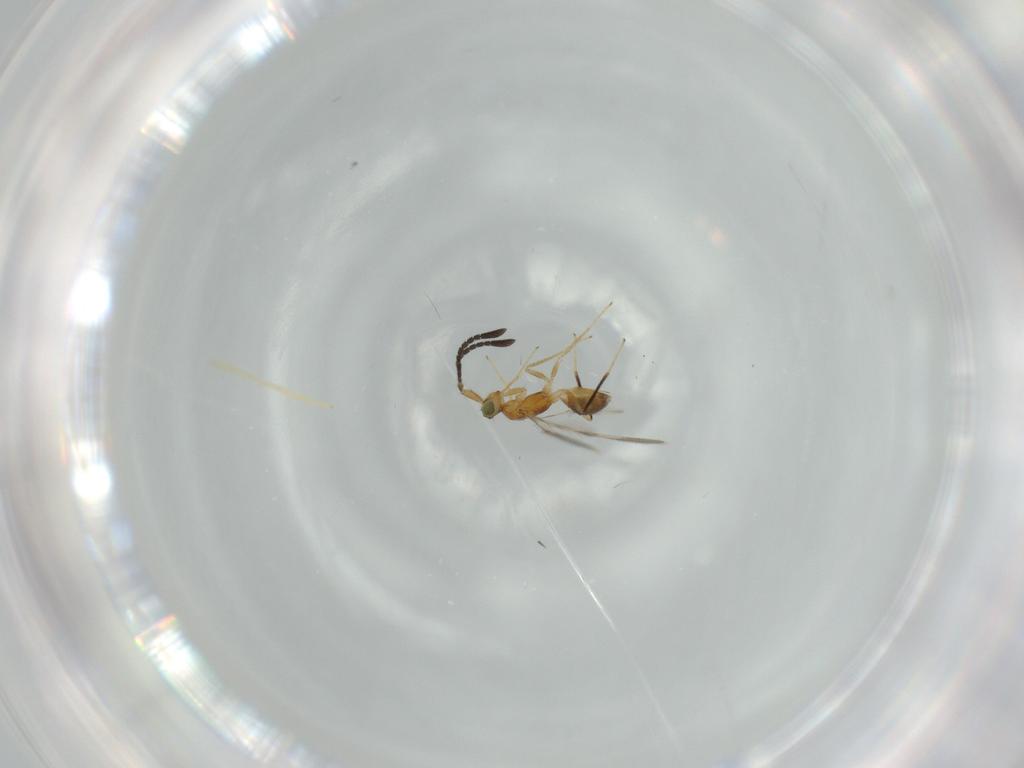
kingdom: Animalia
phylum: Arthropoda
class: Insecta
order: Hymenoptera
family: Mymaridae
